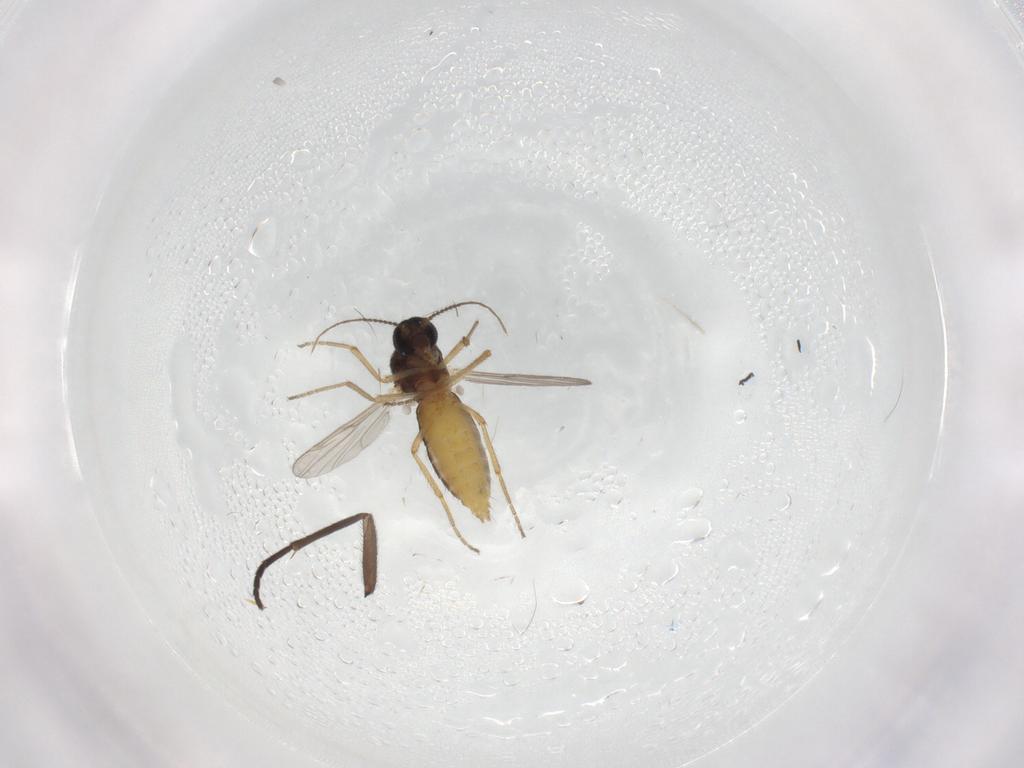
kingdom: Animalia
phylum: Arthropoda
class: Insecta
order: Diptera
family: Ceratopogonidae
